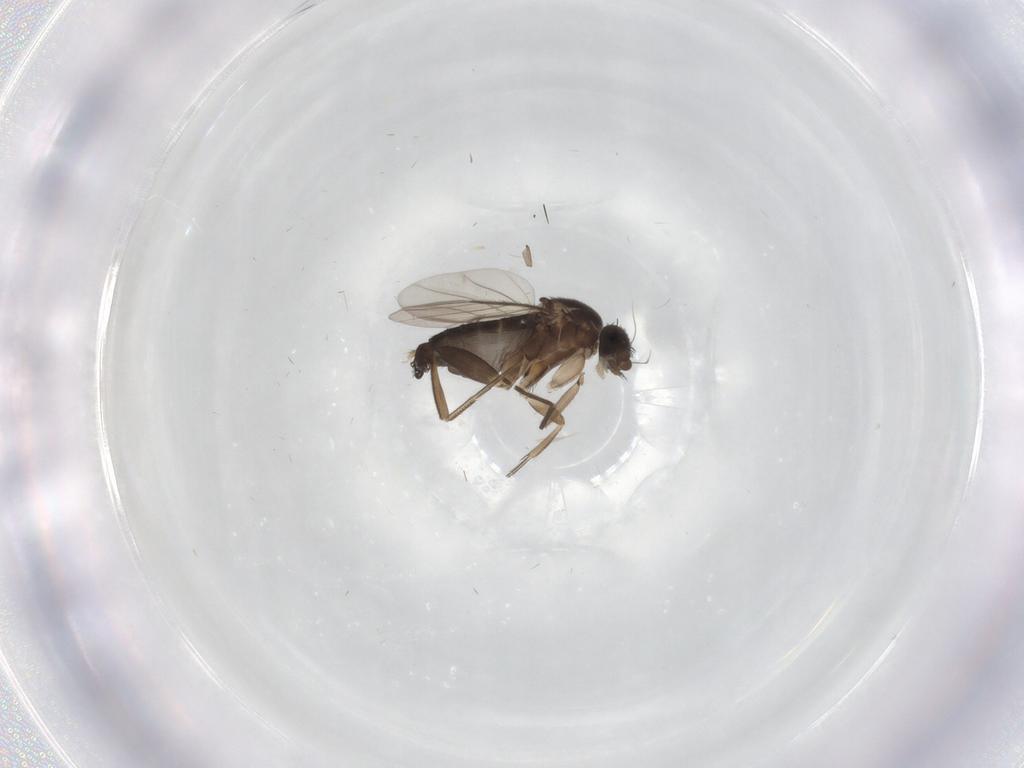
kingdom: Animalia
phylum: Arthropoda
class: Insecta
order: Diptera
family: Phoridae
